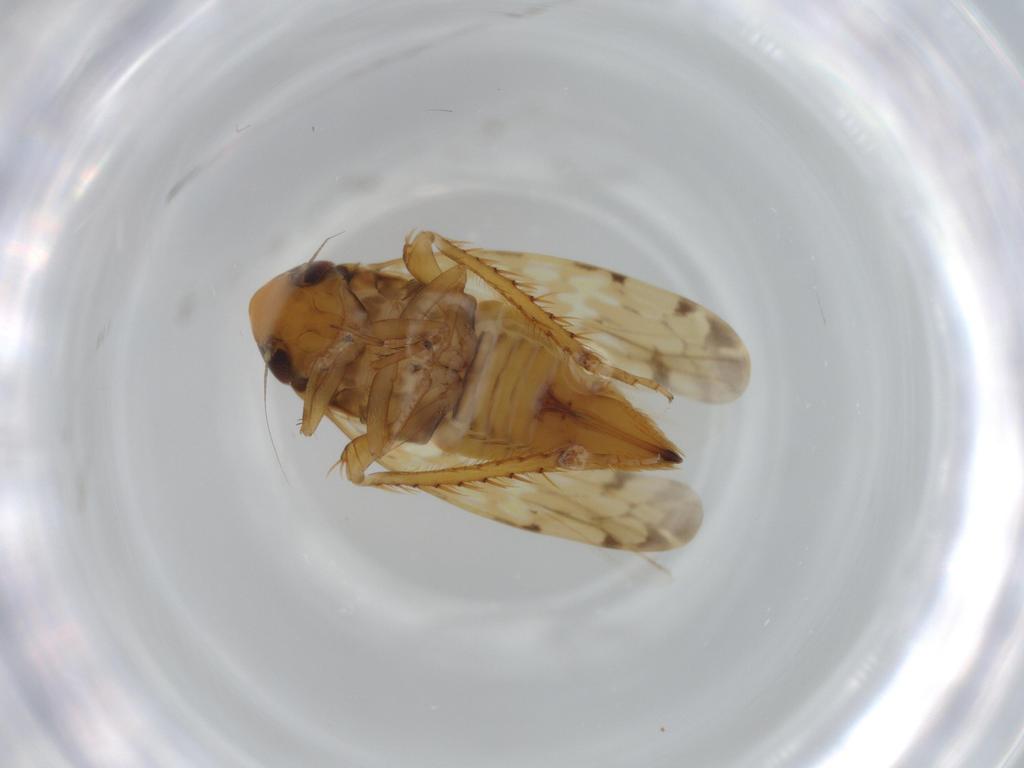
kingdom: Animalia
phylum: Arthropoda
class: Insecta
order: Hemiptera
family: Cicadellidae
